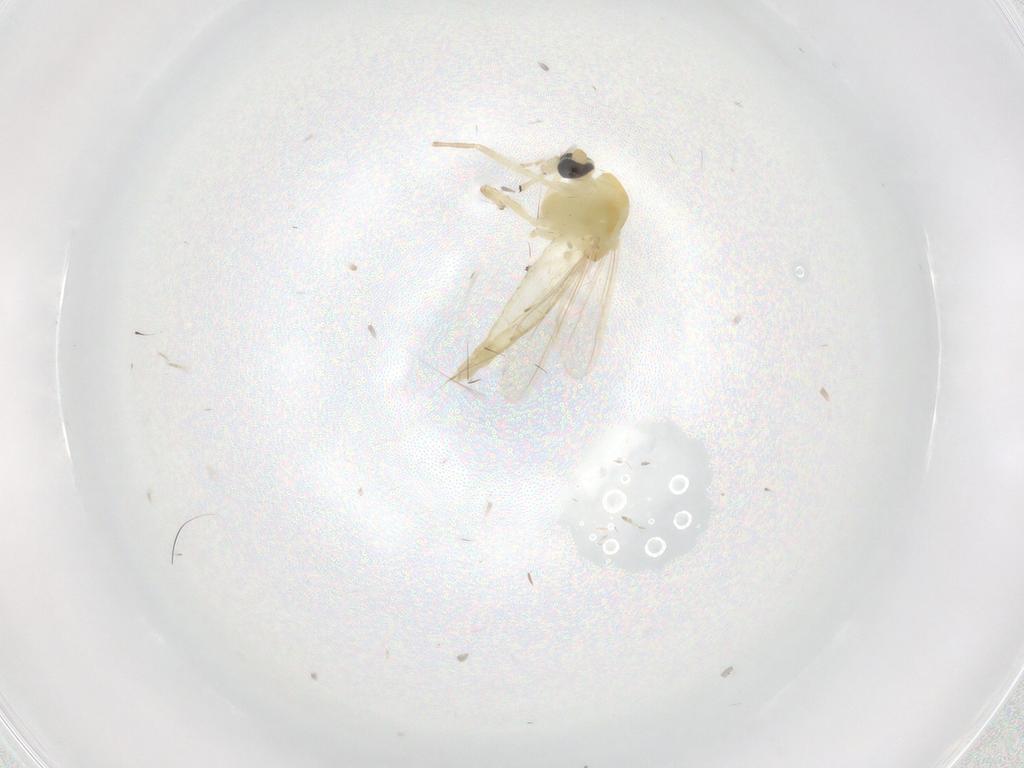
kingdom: Animalia
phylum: Arthropoda
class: Insecta
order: Diptera
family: Chironomidae
